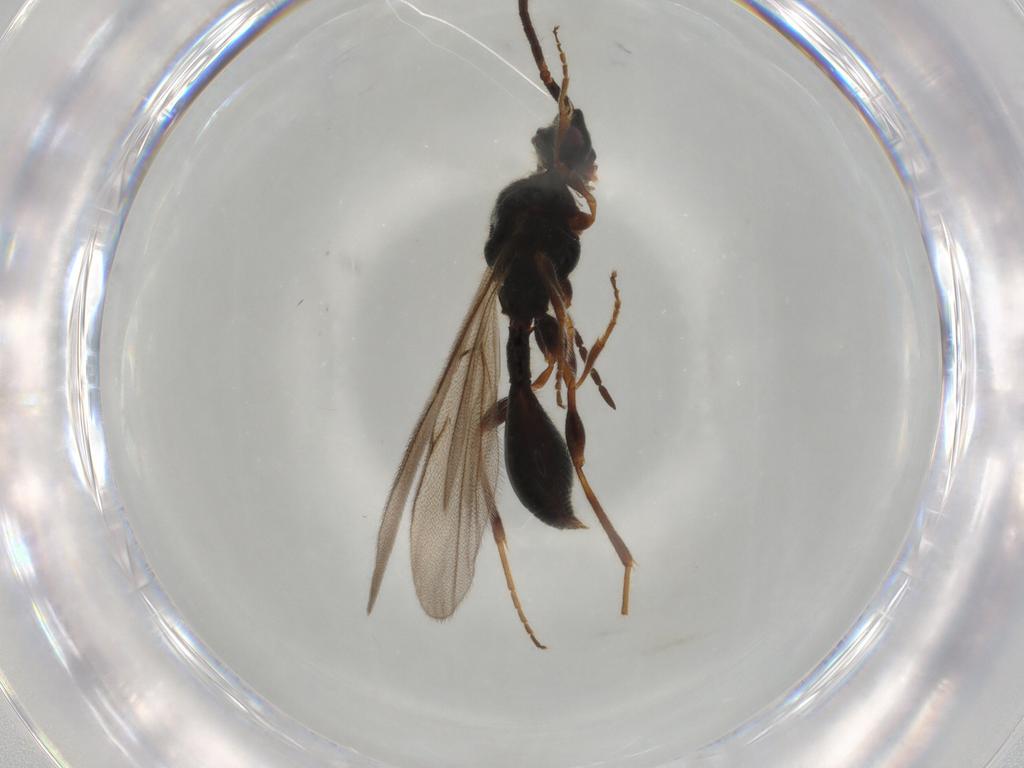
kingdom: Animalia
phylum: Arthropoda
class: Insecta
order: Hymenoptera
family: Dryinidae
